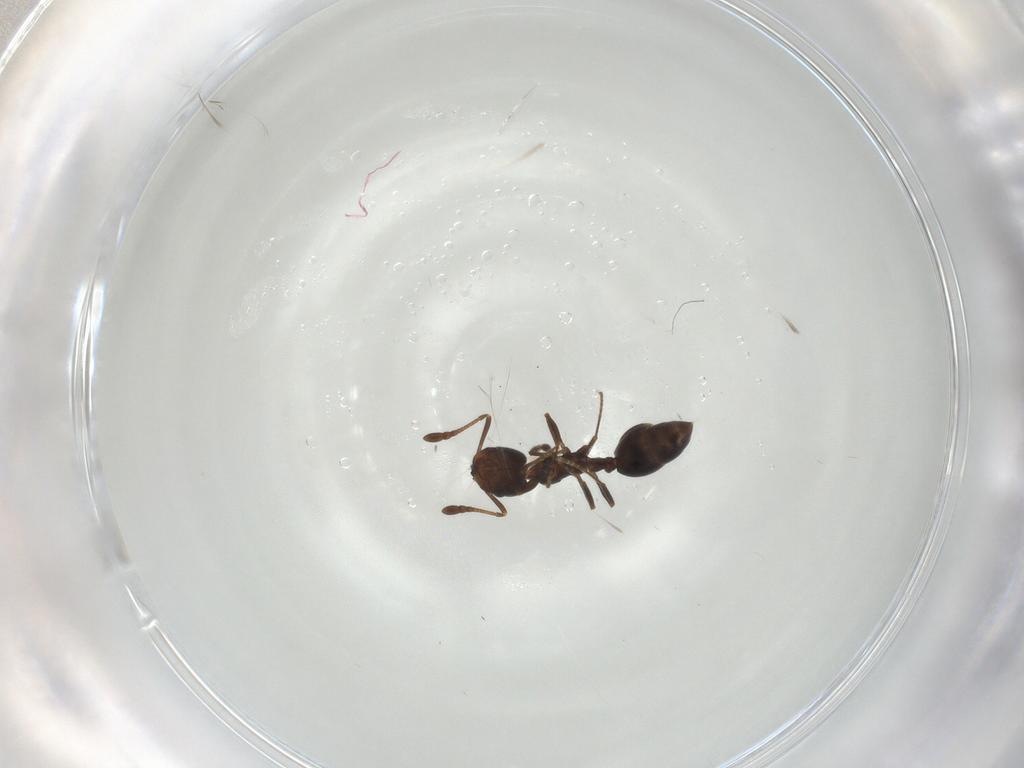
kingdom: Animalia
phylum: Arthropoda
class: Insecta
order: Hymenoptera
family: Formicidae
